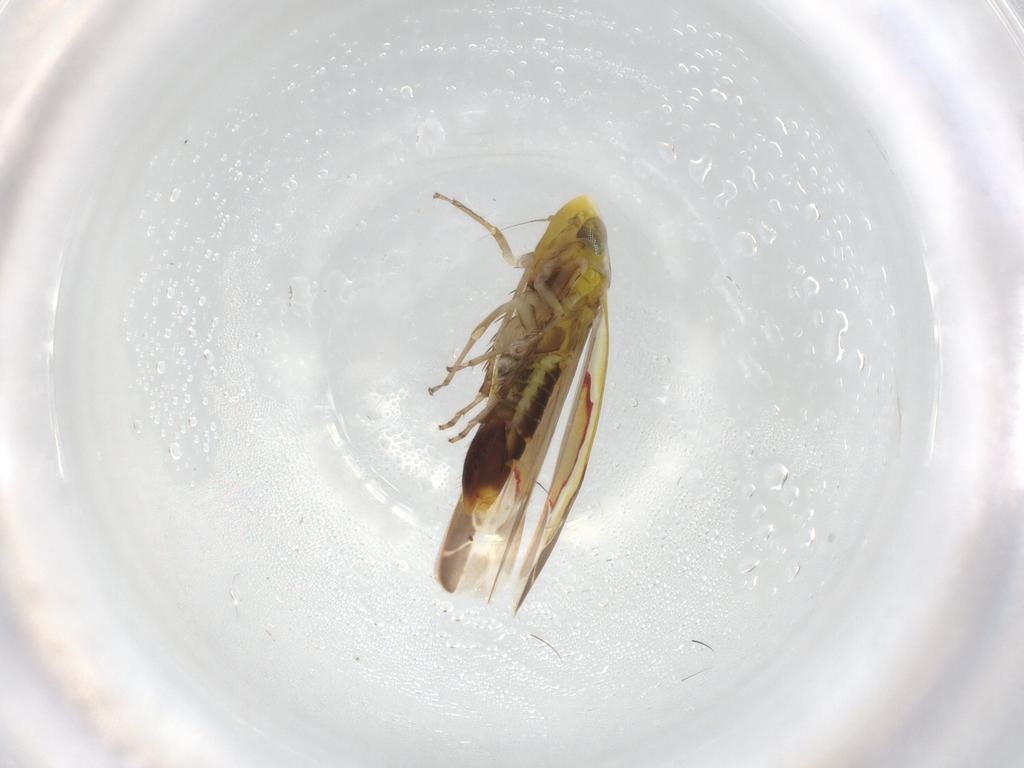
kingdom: Animalia
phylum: Arthropoda
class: Insecta
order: Hemiptera
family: Cicadellidae
